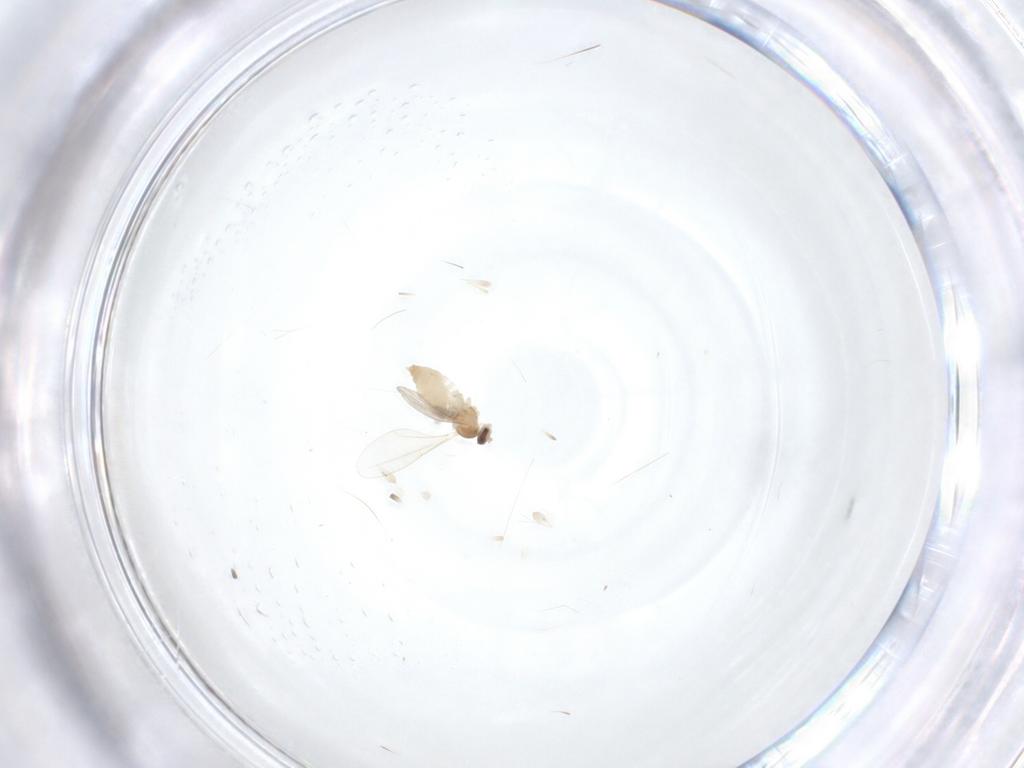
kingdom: Animalia
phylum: Arthropoda
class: Insecta
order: Diptera
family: Cecidomyiidae
